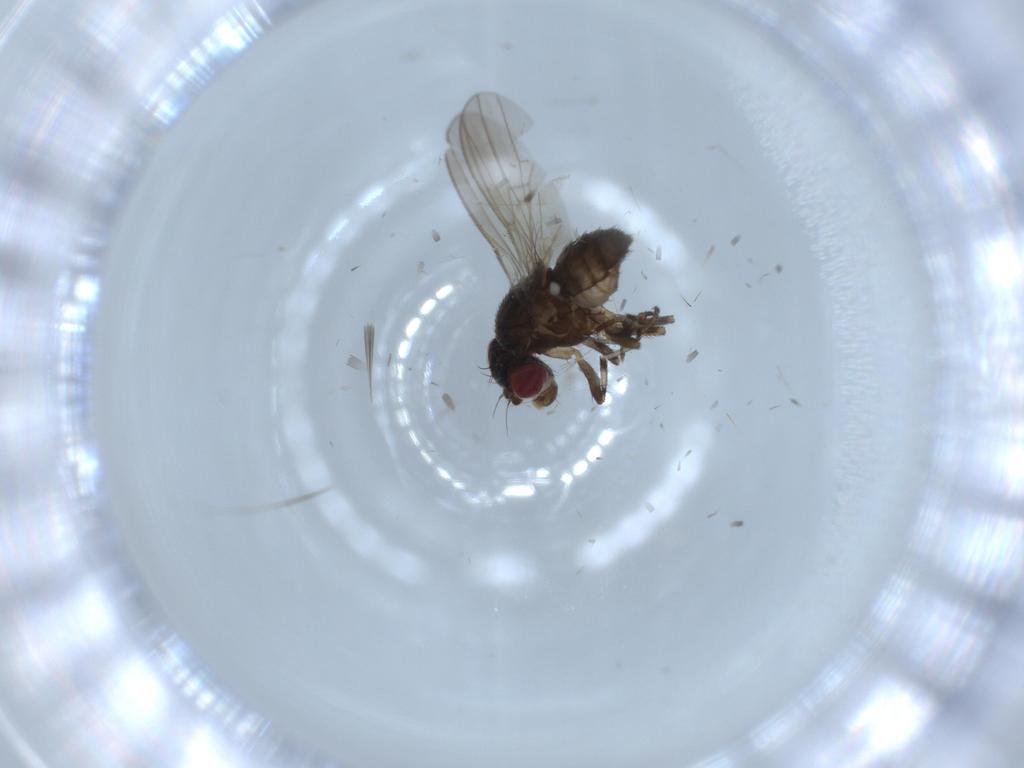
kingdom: Animalia
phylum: Arthropoda
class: Insecta
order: Diptera
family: Heleomyzidae
